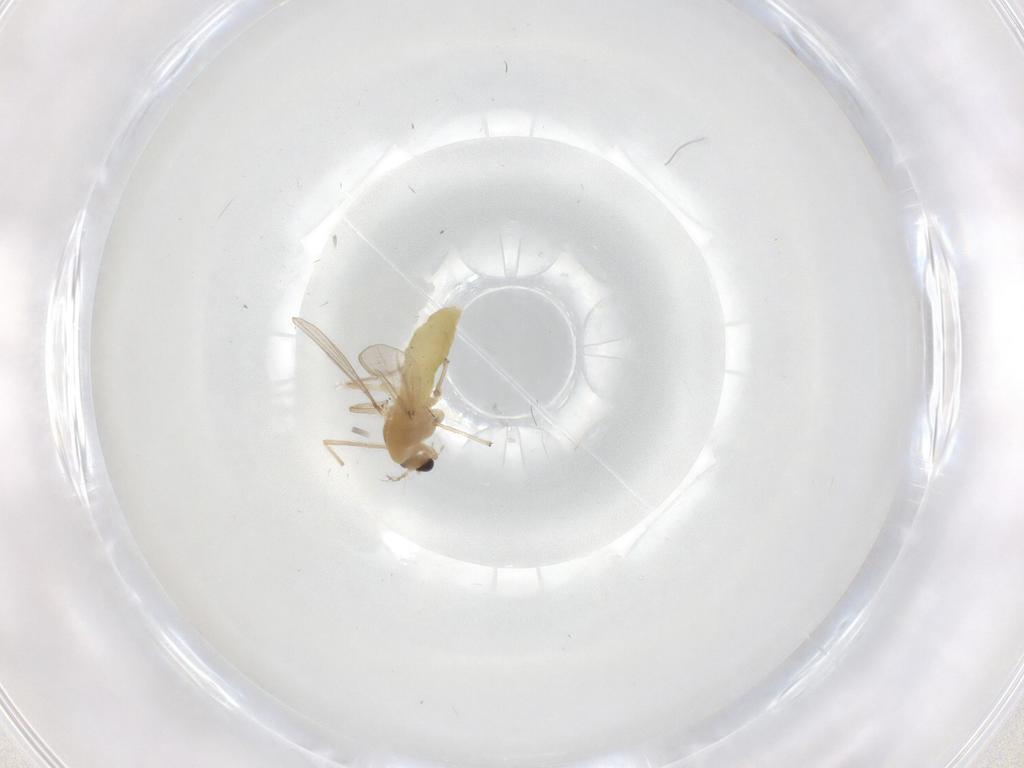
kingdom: Animalia
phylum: Arthropoda
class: Insecta
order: Diptera
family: Chironomidae
